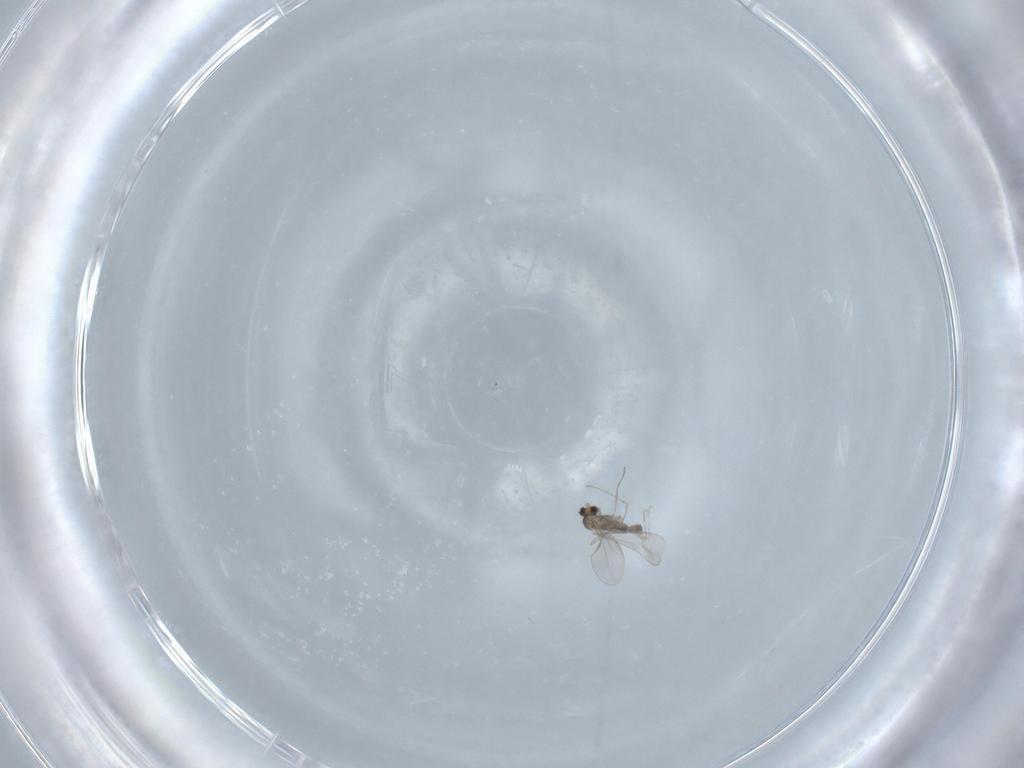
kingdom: Animalia
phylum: Arthropoda
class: Insecta
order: Diptera
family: Cecidomyiidae
